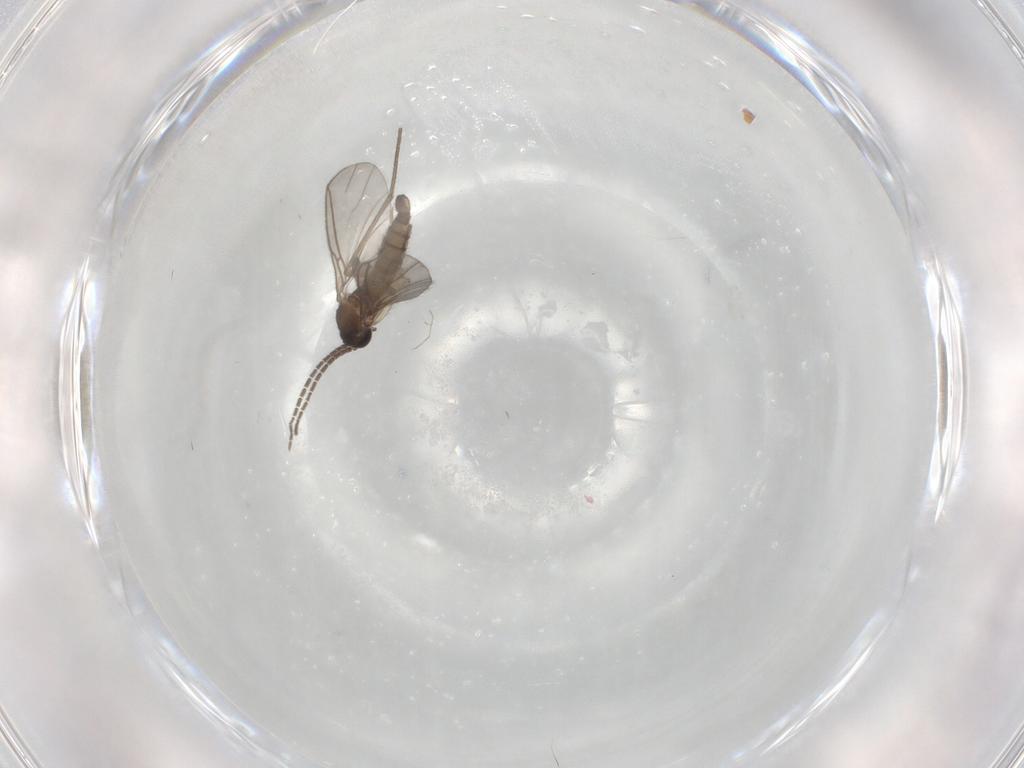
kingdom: Animalia
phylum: Arthropoda
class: Insecta
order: Diptera
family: Sciaridae
